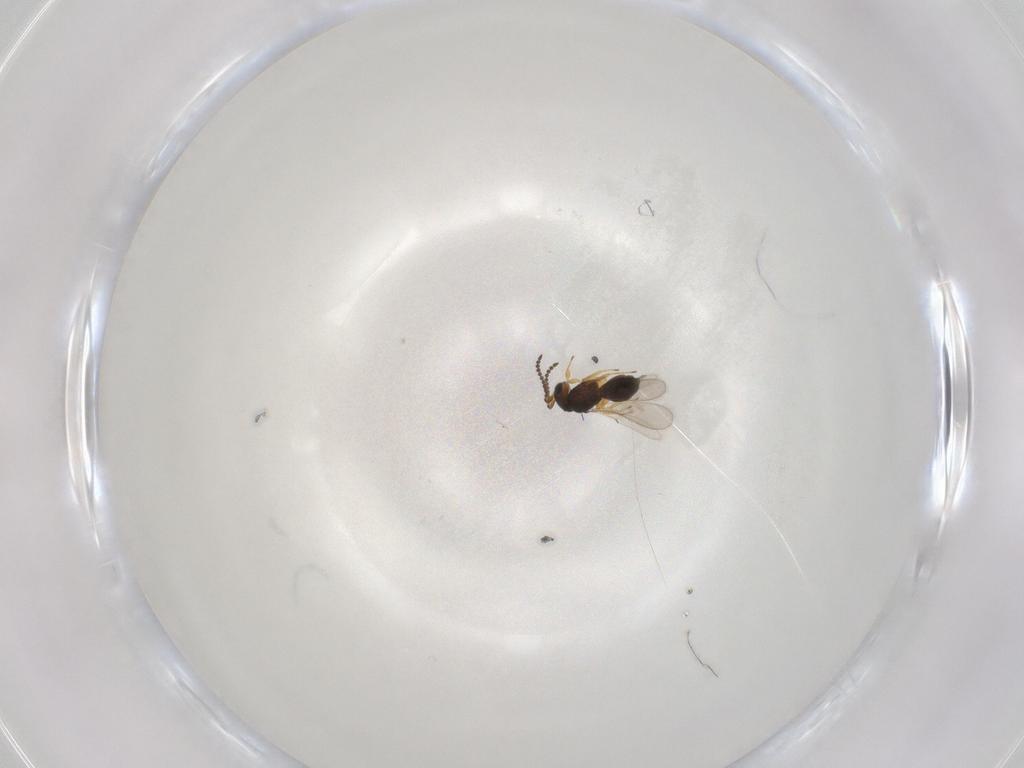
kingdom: Animalia
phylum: Arthropoda
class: Insecta
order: Hymenoptera
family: Scelionidae
